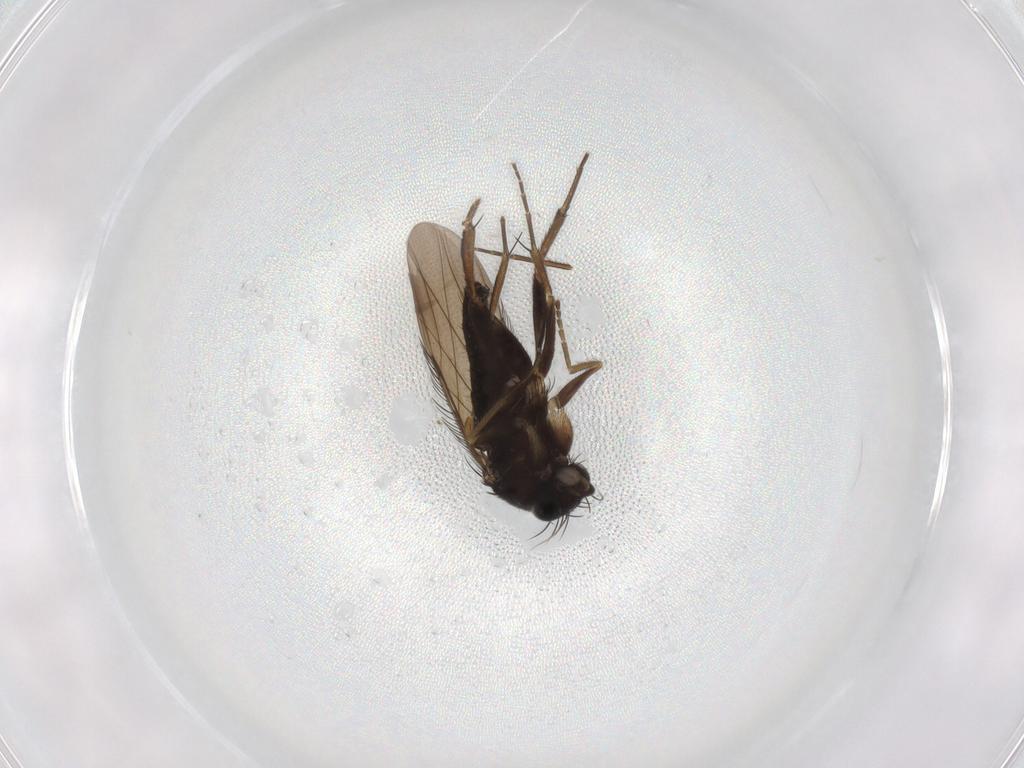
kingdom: Animalia
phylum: Arthropoda
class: Insecta
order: Diptera
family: Phoridae
